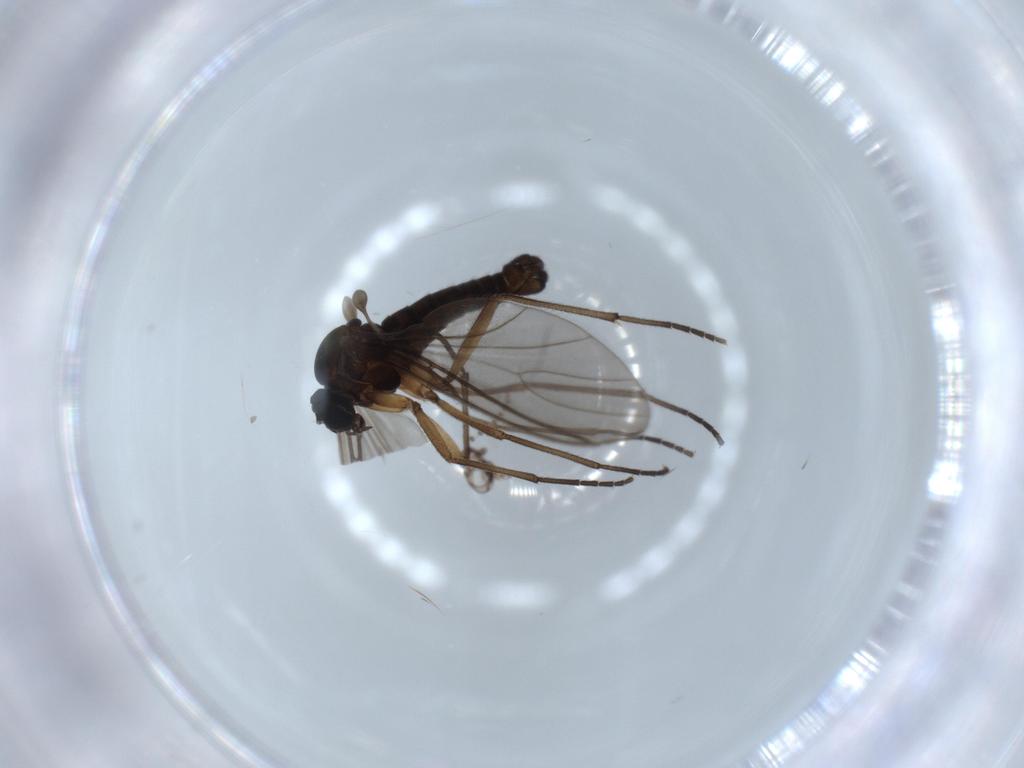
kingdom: Animalia
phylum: Arthropoda
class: Insecta
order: Diptera
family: Sciaridae
